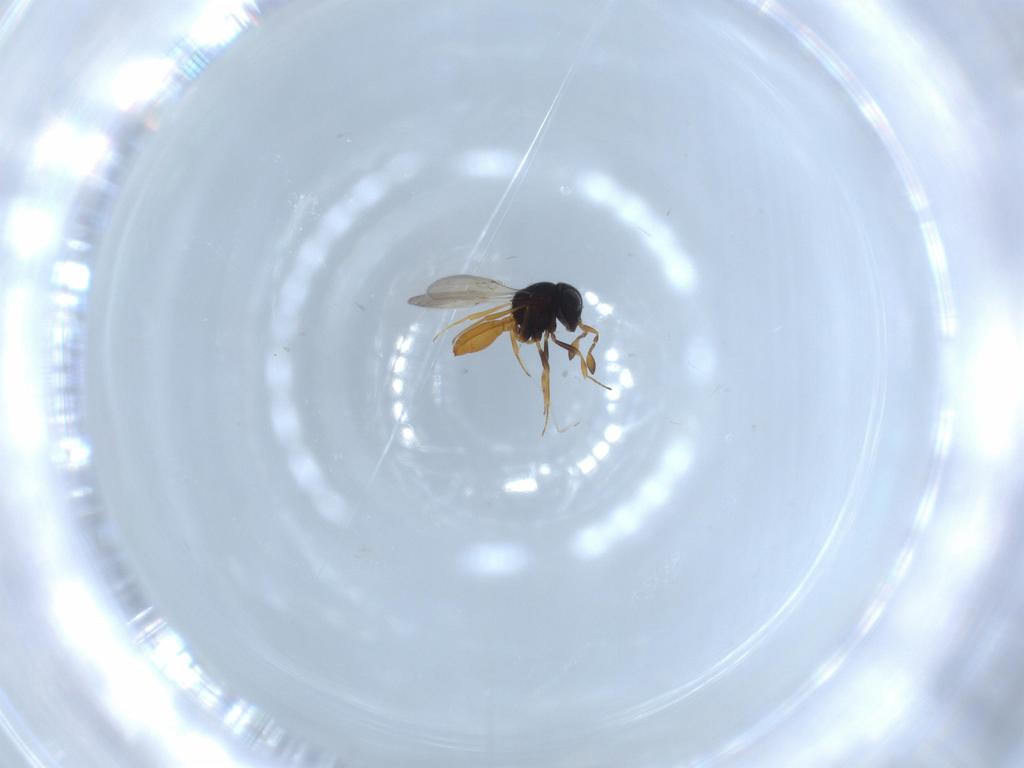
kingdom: Animalia
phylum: Arthropoda
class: Insecta
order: Hymenoptera
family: Scelionidae
